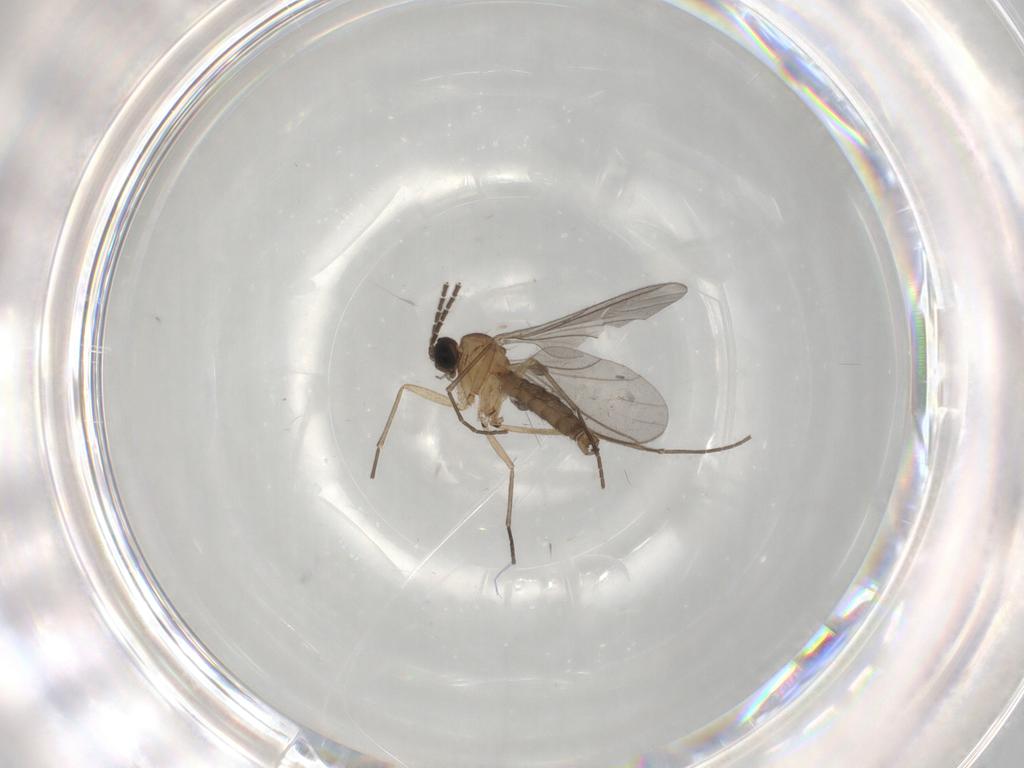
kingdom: Animalia
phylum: Arthropoda
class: Insecta
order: Diptera
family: Sciaridae
